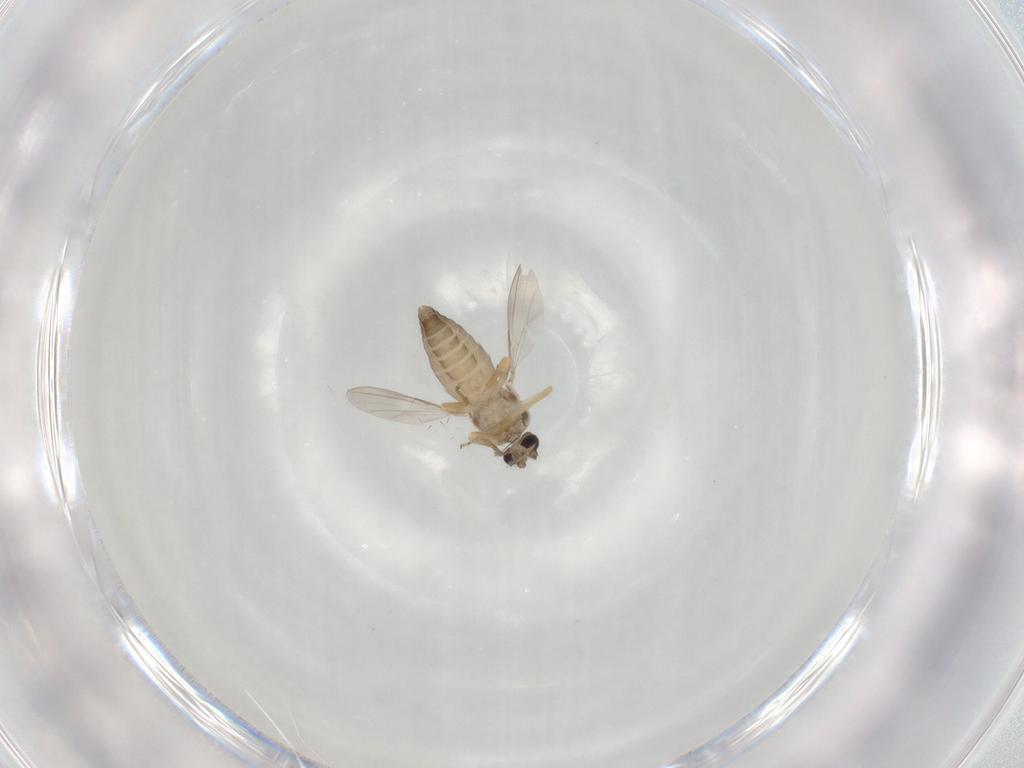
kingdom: Animalia
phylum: Arthropoda
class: Insecta
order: Diptera
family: Ceratopogonidae
